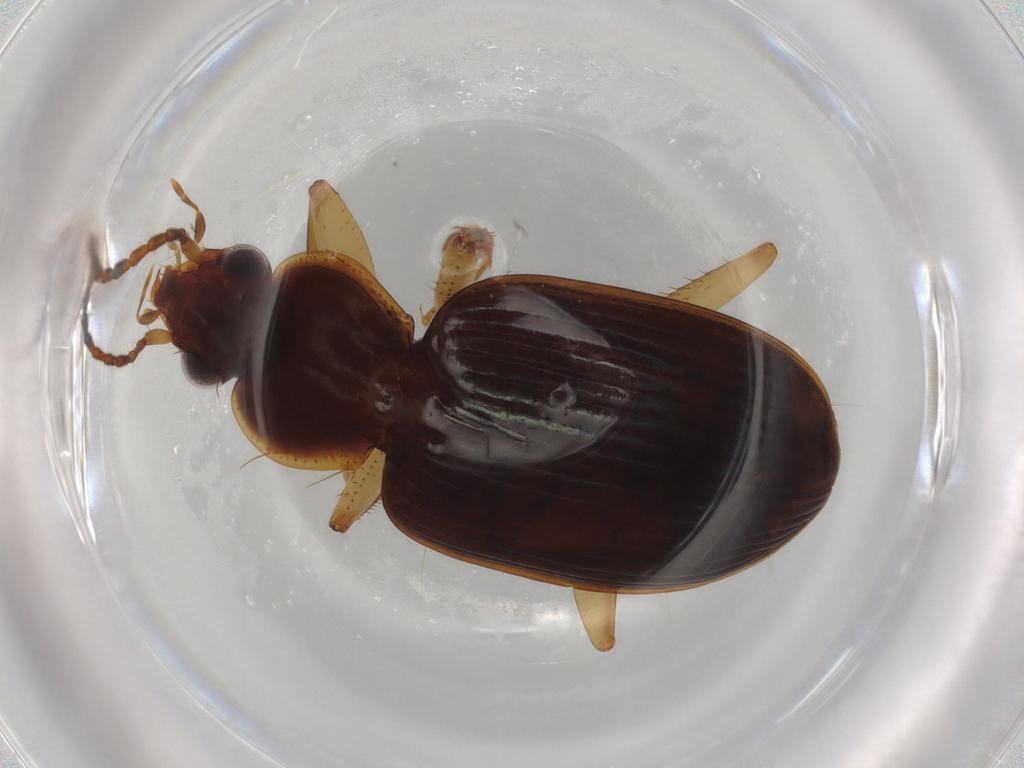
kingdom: Animalia
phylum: Arthropoda
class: Insecta
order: Coleoptera
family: Carabidae
